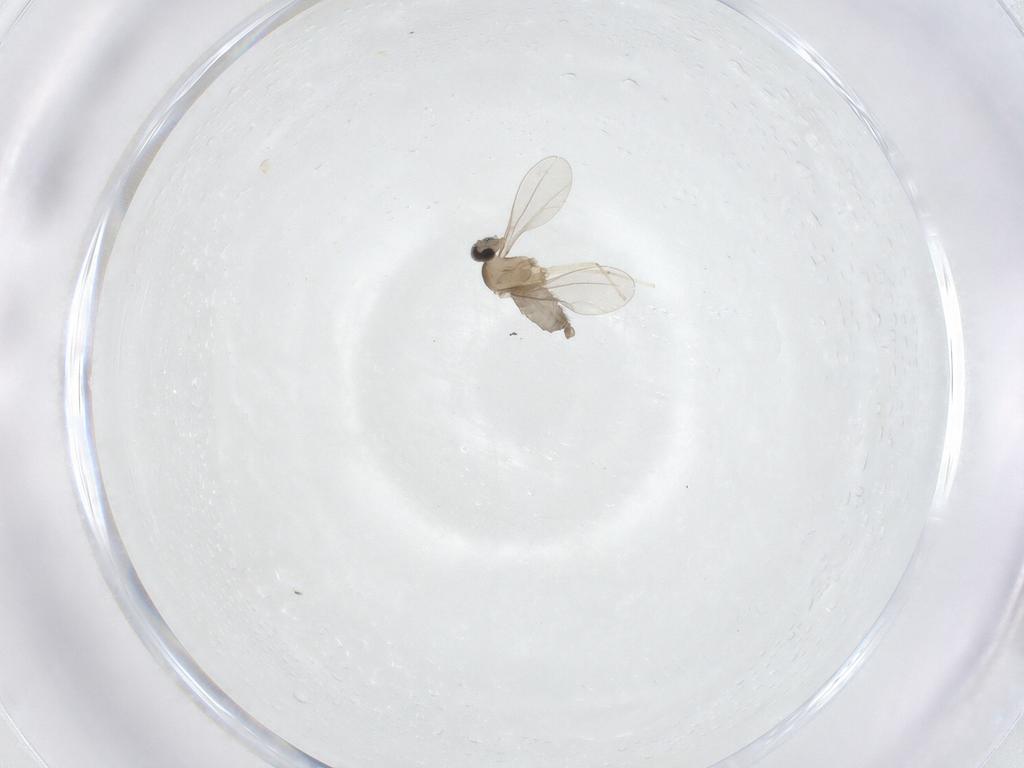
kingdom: Animalia
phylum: Arthropoda
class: Insecta
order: Diptera
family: Cecidomyiidae
